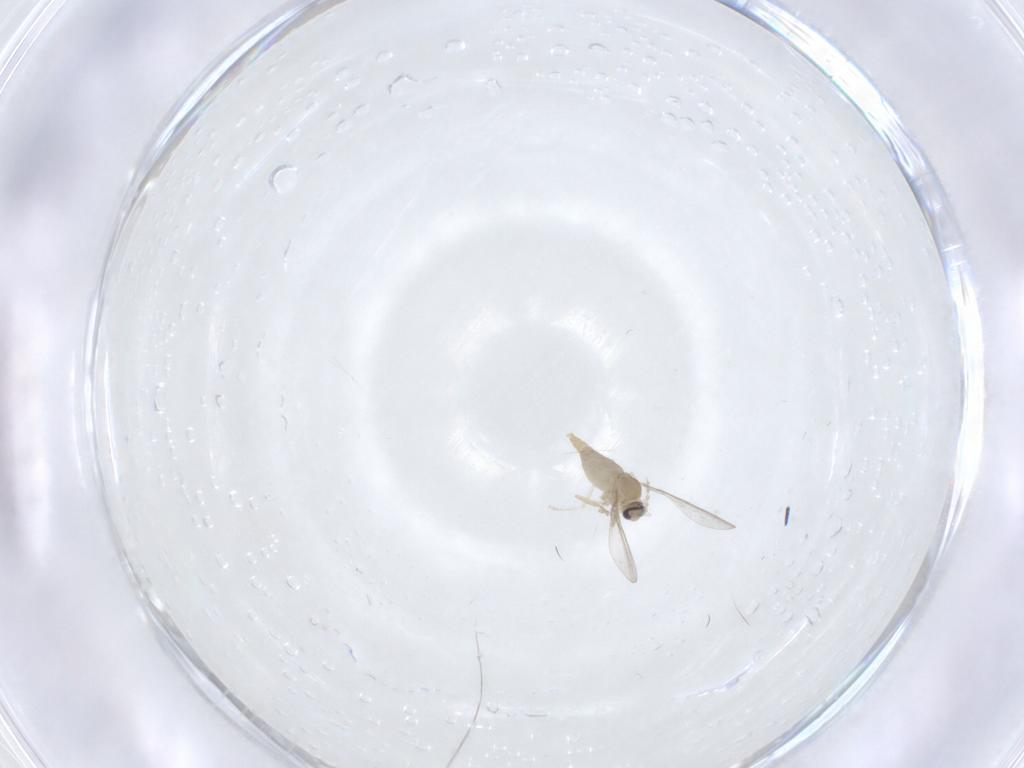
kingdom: Animalia
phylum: Arthropoda
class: Insecta
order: Diptera
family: Cecidomyiidae
